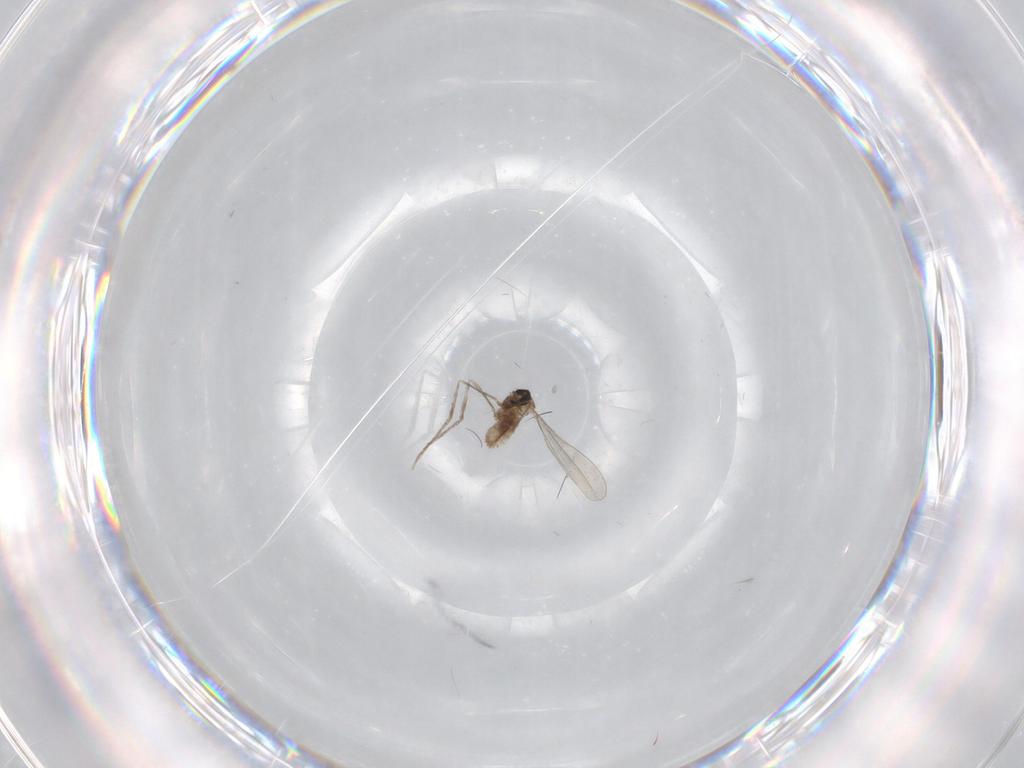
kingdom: Animalia
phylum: Arthropoda
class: Insecta
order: Diptera
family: Cecidomyiidae
